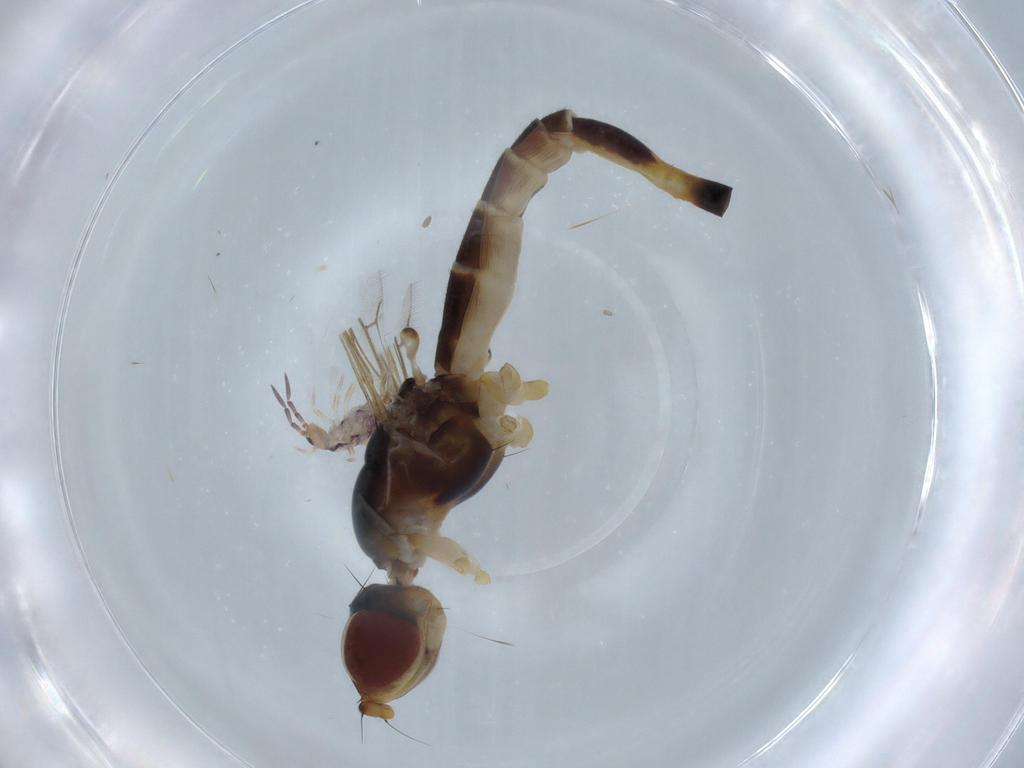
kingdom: Animalia
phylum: Arthropoda
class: Insecta
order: Diptera
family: Micropezidae
